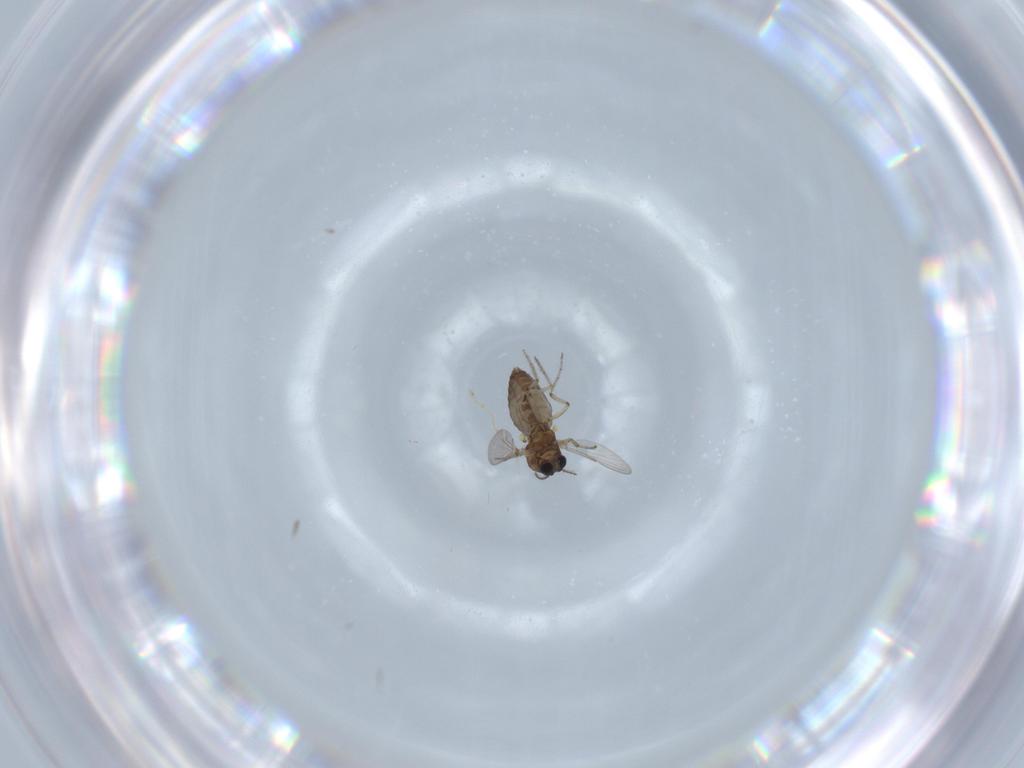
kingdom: Animalia
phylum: Arthropoda
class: Insecta
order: Diptera
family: Ceratopogonidae
